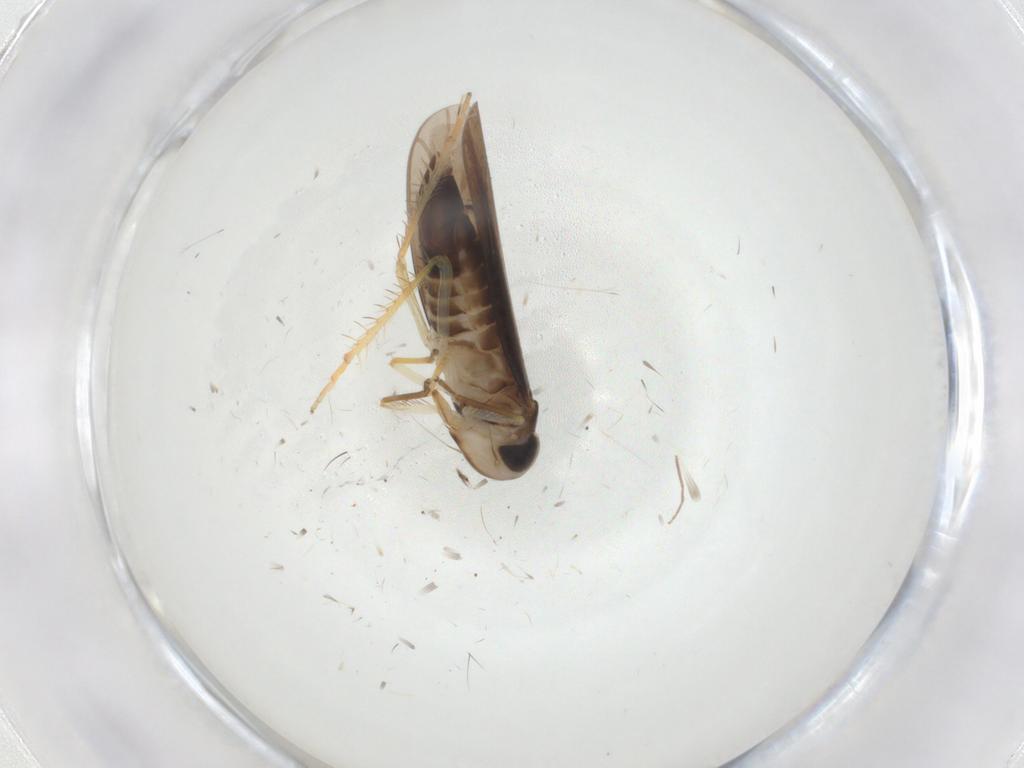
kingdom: Animalia
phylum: Arthropoda
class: Insecta
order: Hemiptera
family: Cicadellidae
